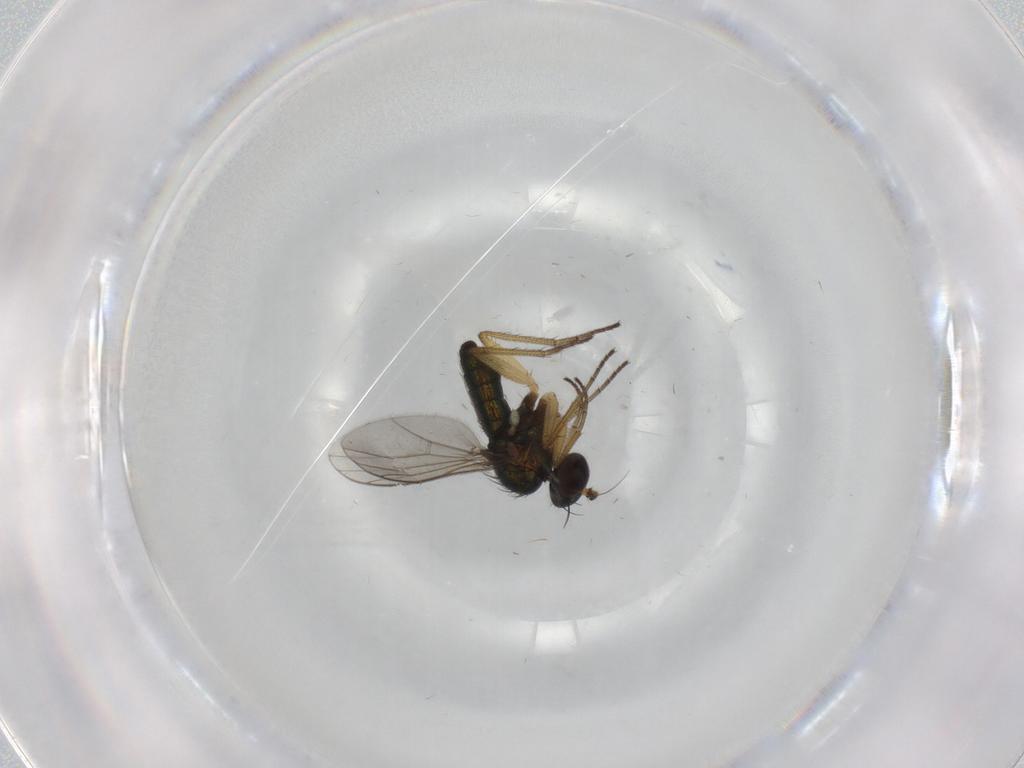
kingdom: Animalia
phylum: Arthropoda
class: Insecta
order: Diptera
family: Ceratopogonidae
